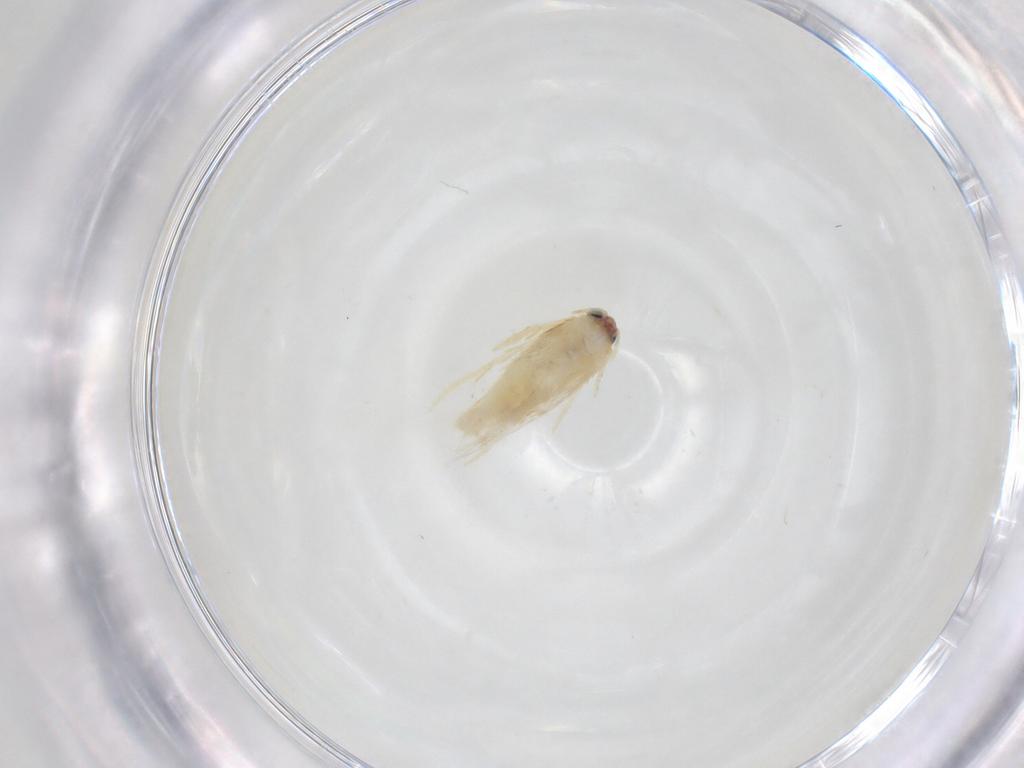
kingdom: Animalia
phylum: Arthropoda
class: Insecta
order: Lepidoptera
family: Nepticulidae
